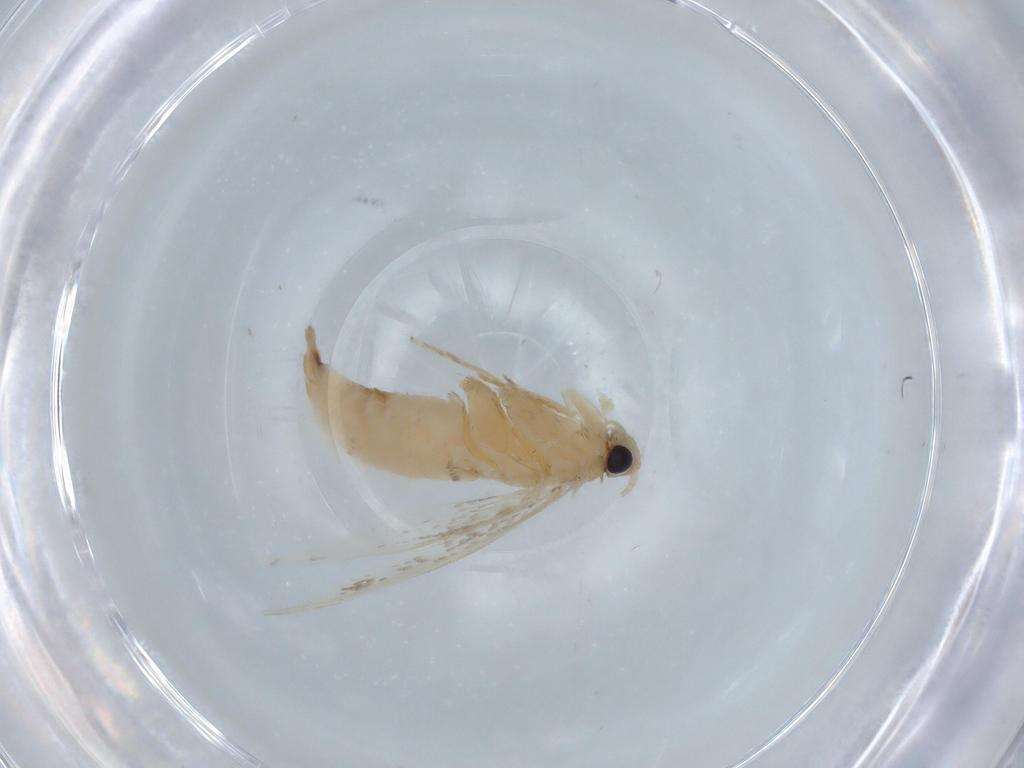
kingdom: Animalia
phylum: Arthropoda
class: Insecta
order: Lepidoptera
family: Tineidae
